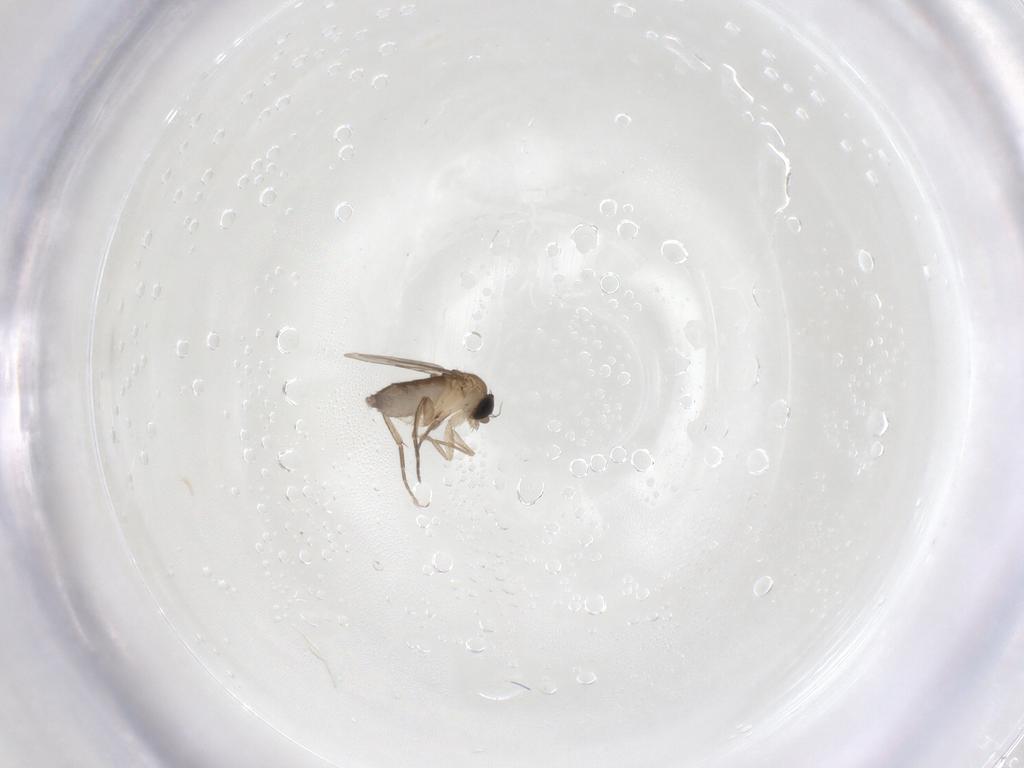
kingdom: Animalia
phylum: Arthropoda
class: Insecta
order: Diptera
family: Phoridae
